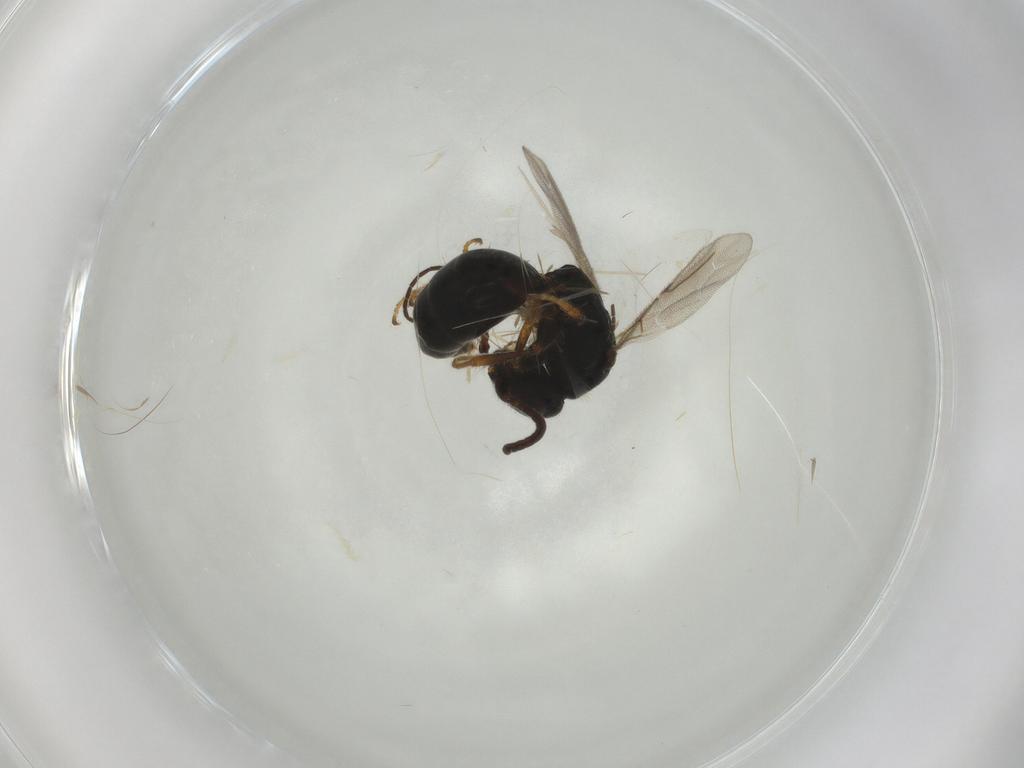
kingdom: Animalia
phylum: Arthropoda
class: Insecta
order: Hymenoptera
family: Bethylidae
